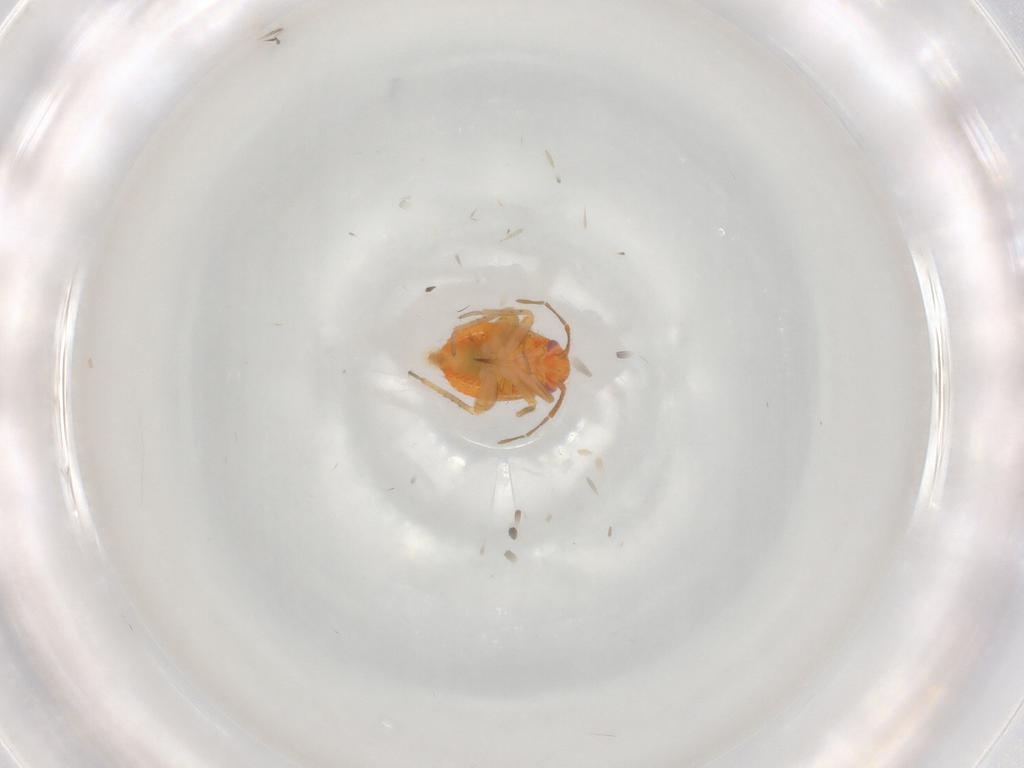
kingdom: Animalia
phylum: Arthropoda
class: Insecta
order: Hemiptera
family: Miridae
